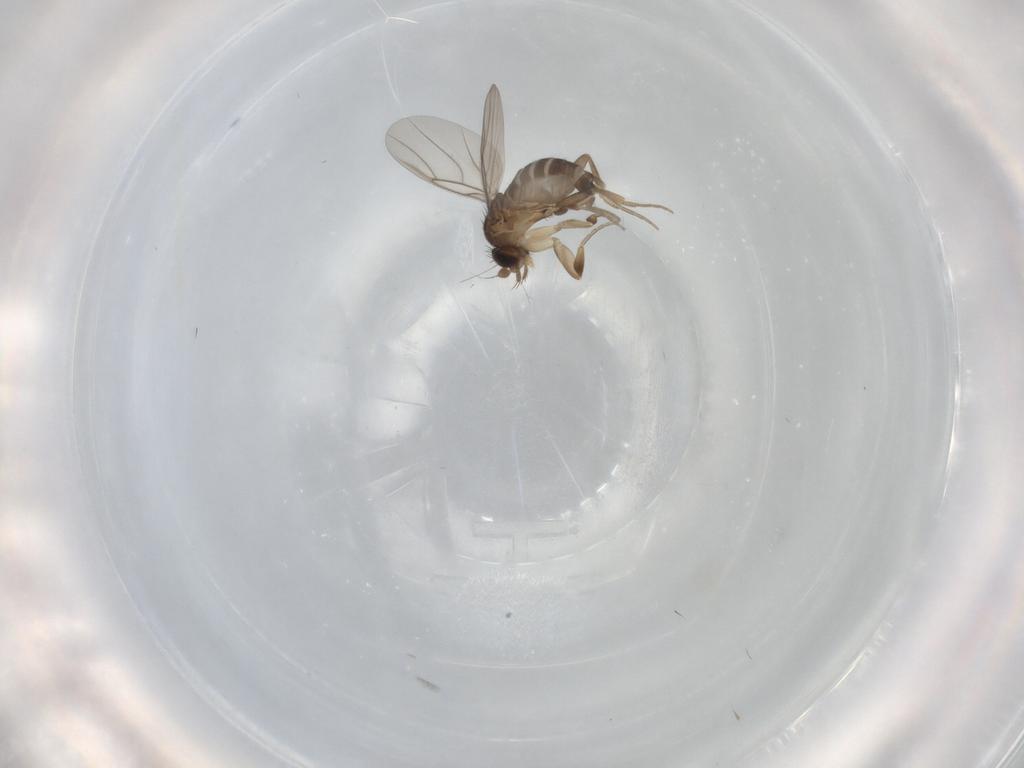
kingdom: Animalia
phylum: Arthropoda
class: Insecta
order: Diptera
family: Phoridae
